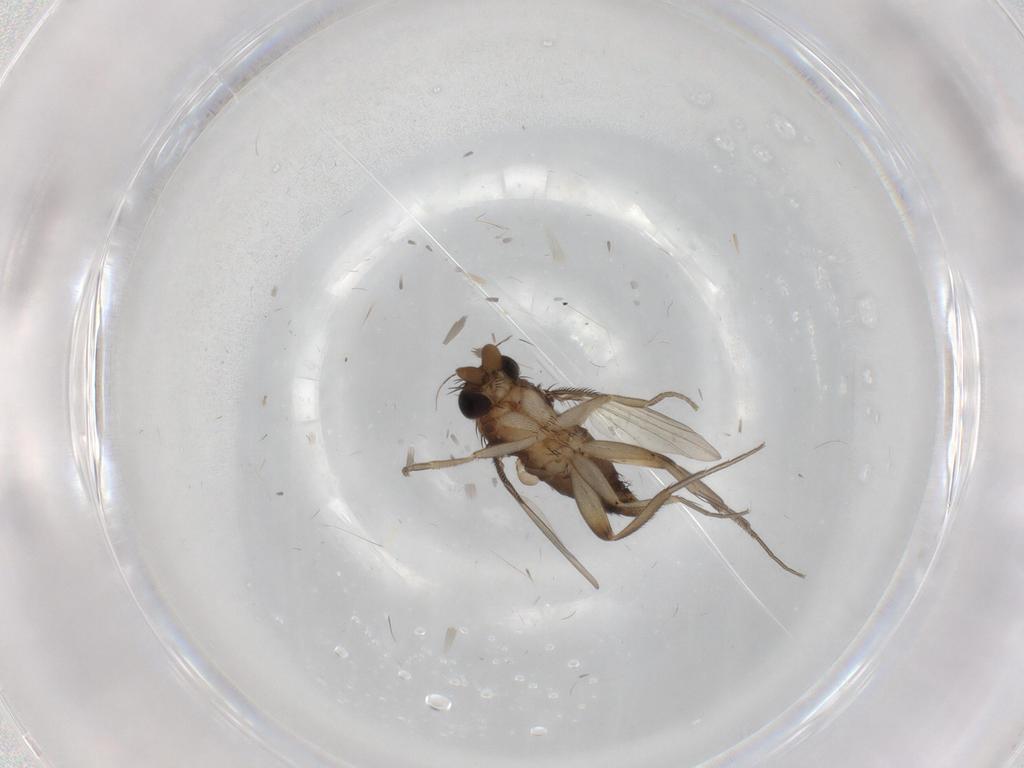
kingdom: Animalia
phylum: Arthropoda
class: Insecta
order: Diptera
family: Phoridae
